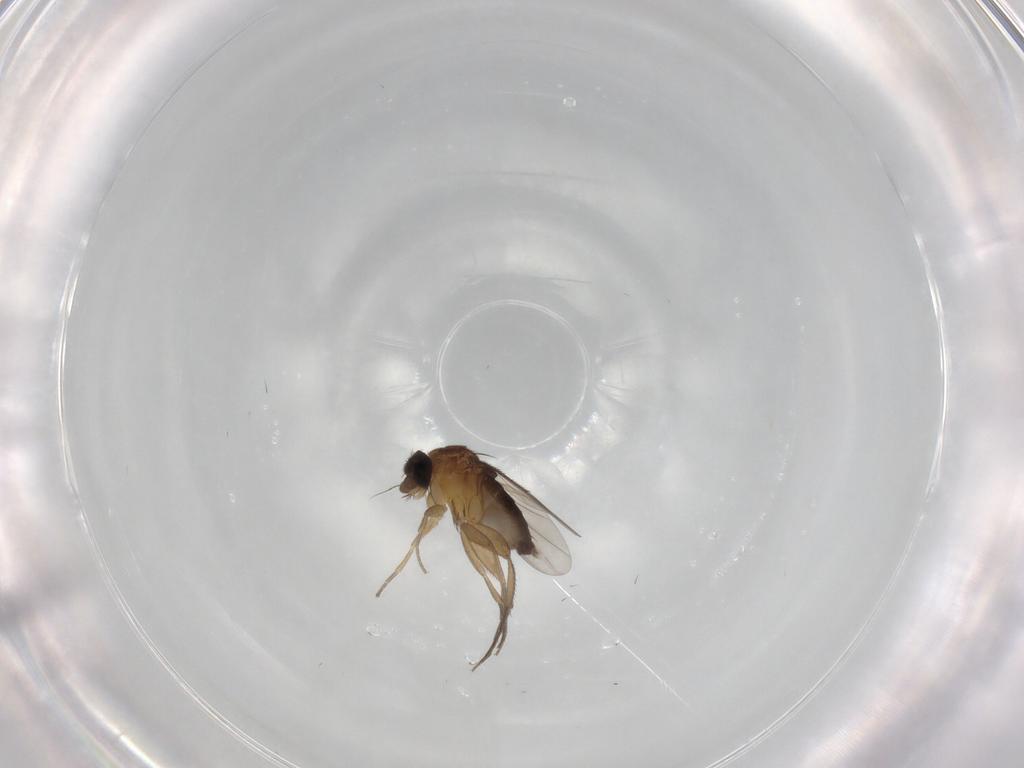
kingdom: Animalia
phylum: Arthropoda
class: Insecta
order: Diptera
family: Phoridae
